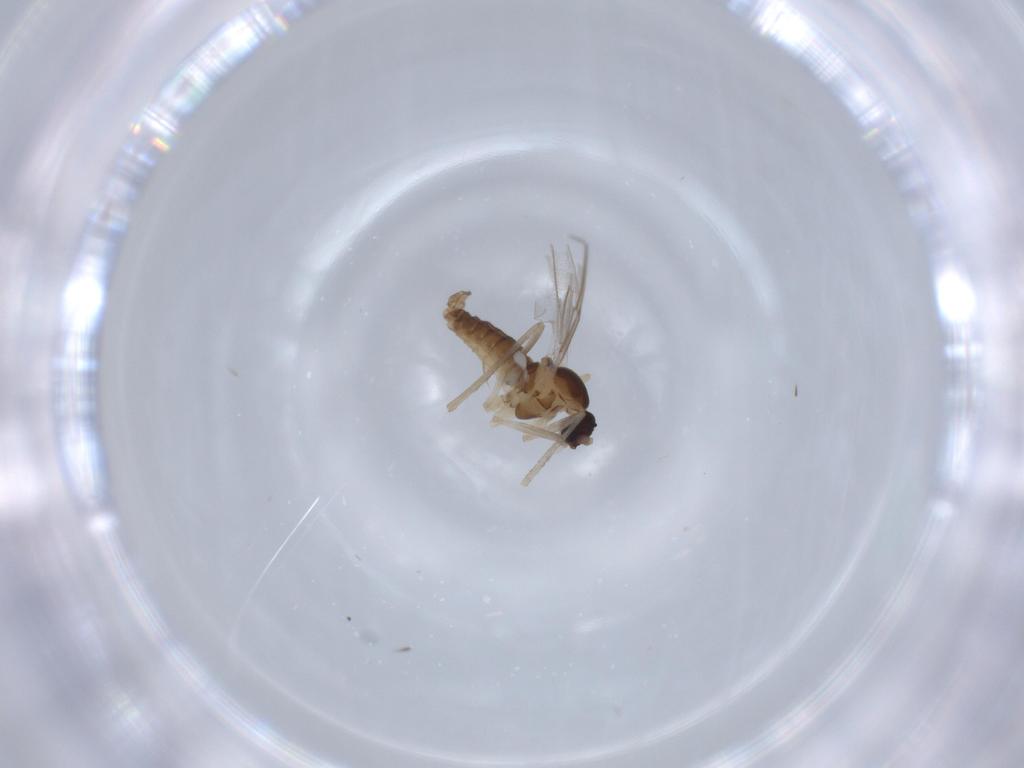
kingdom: Animalia
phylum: Arthropoda
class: Insecta
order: Diptera
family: Cecidomyiidae
